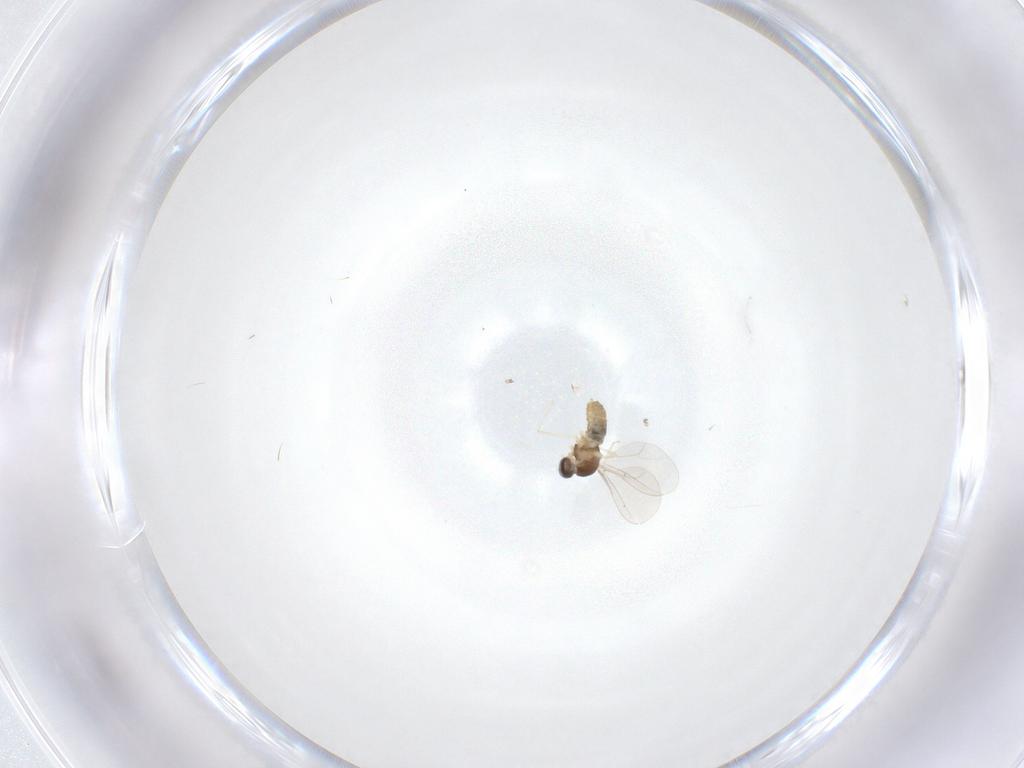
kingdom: Animalia
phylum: Arthropoda
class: Insecta
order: Diptera
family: Cecidomyiidae
